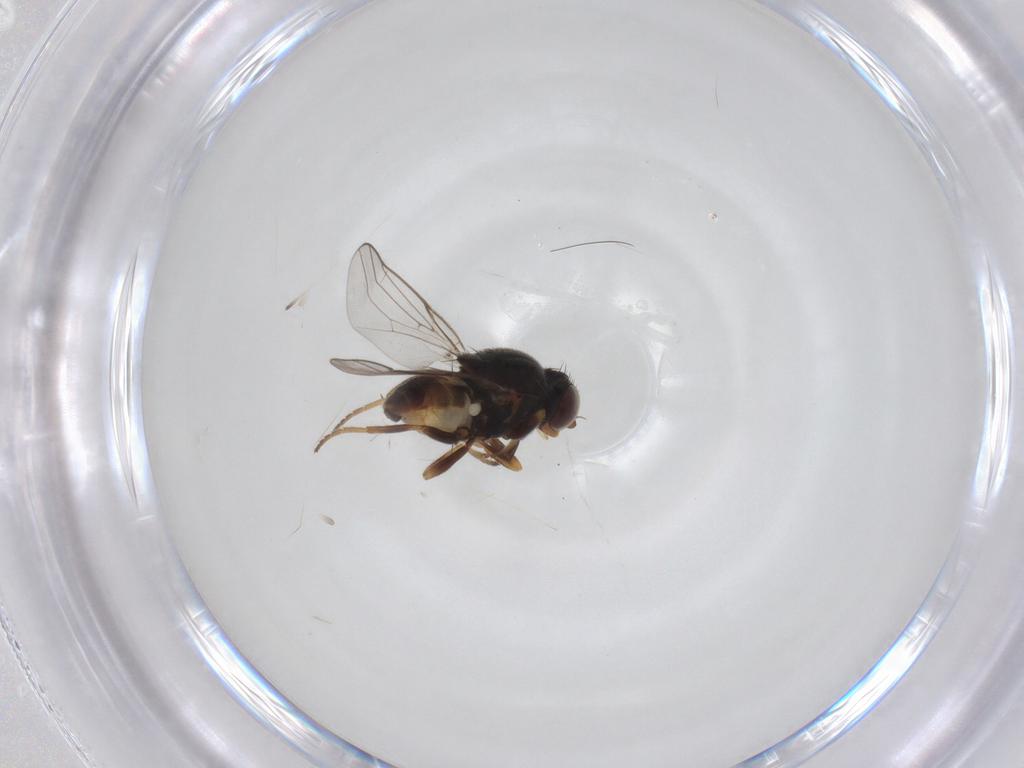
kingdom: Animalia
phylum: Arthropoda
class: Insecta
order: Diptera
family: Chloropidae
